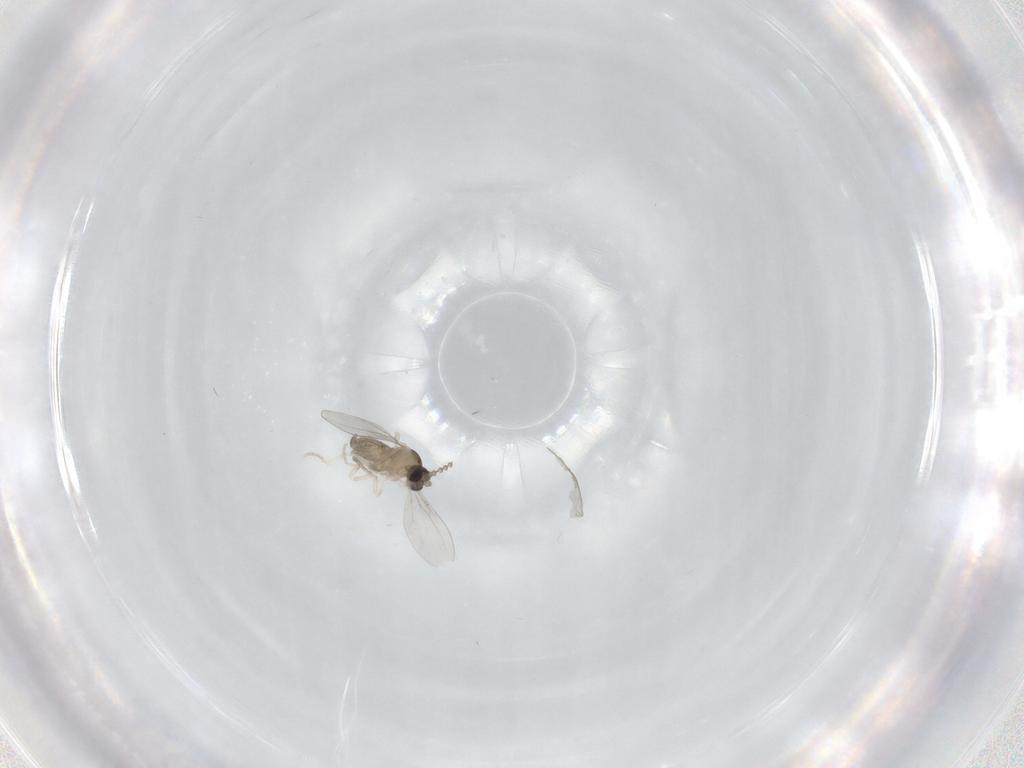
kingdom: Animalia
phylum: Arthropoda
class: Insecta
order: Diptera
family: Cecidomyiidae
